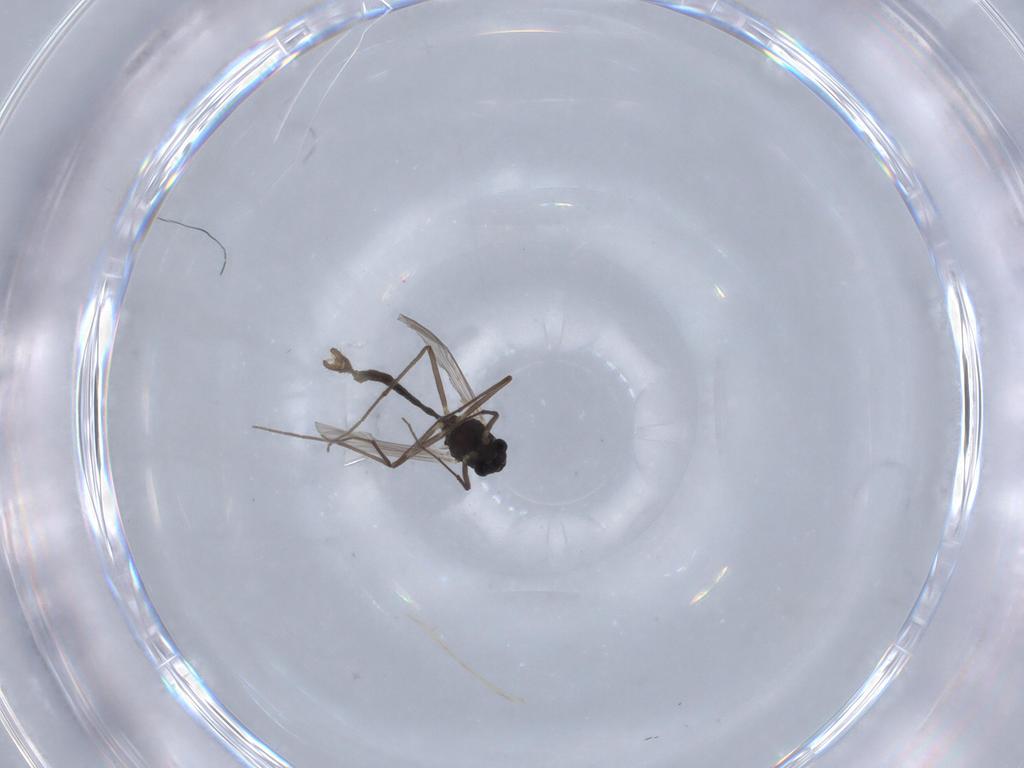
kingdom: Animalia
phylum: Arthropoda
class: Insecta
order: Diptera
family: Chironomidae
